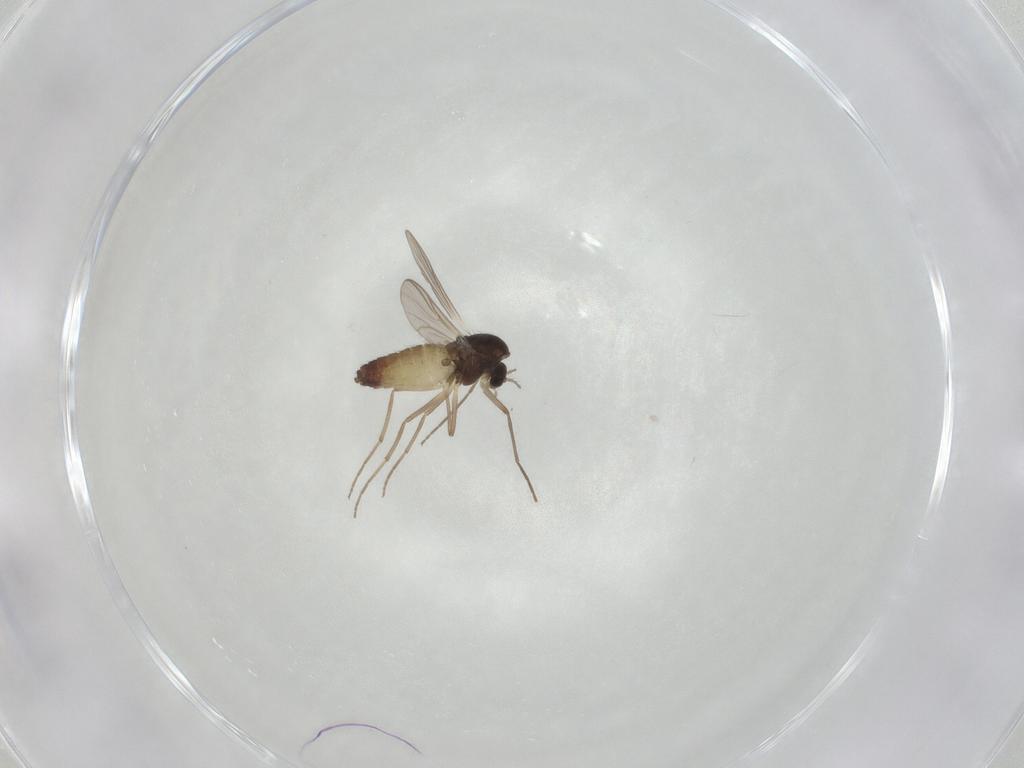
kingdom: Animalia
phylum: Arthropoda
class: Insecta
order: Diptera
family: Chironomidae
